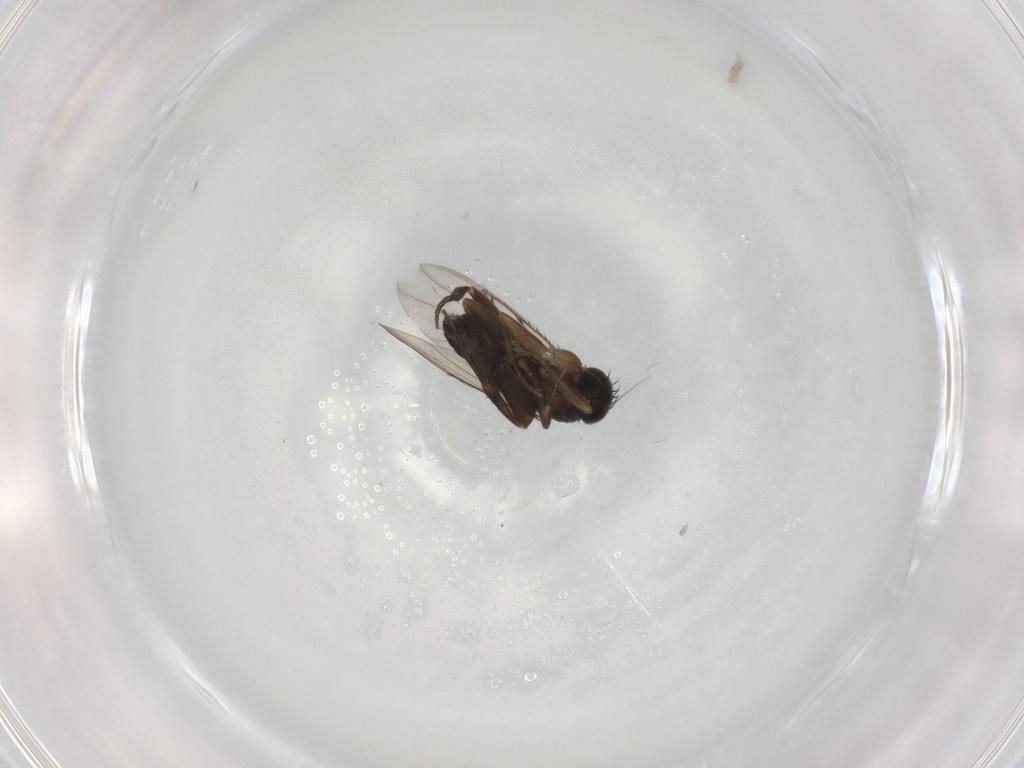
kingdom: Animalia
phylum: Arthropoda
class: Insecta
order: Diptera
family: Phoridae
